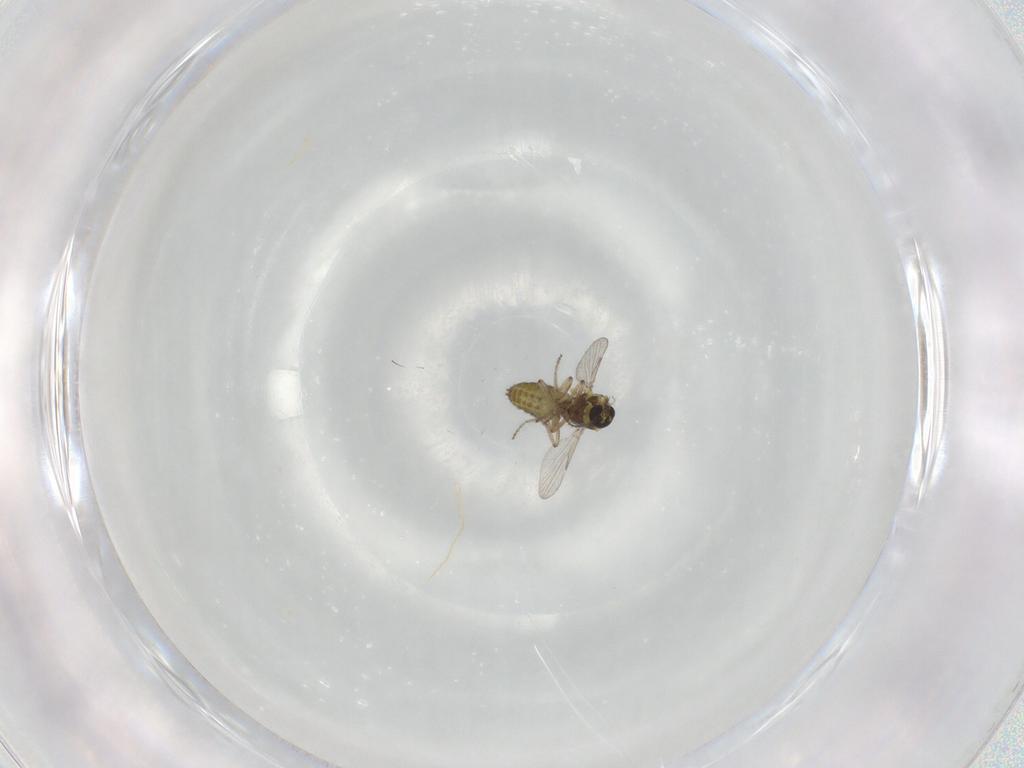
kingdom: Animalia
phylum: Arthropoda
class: Insecta
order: Diptera
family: Ceratopogonidae
